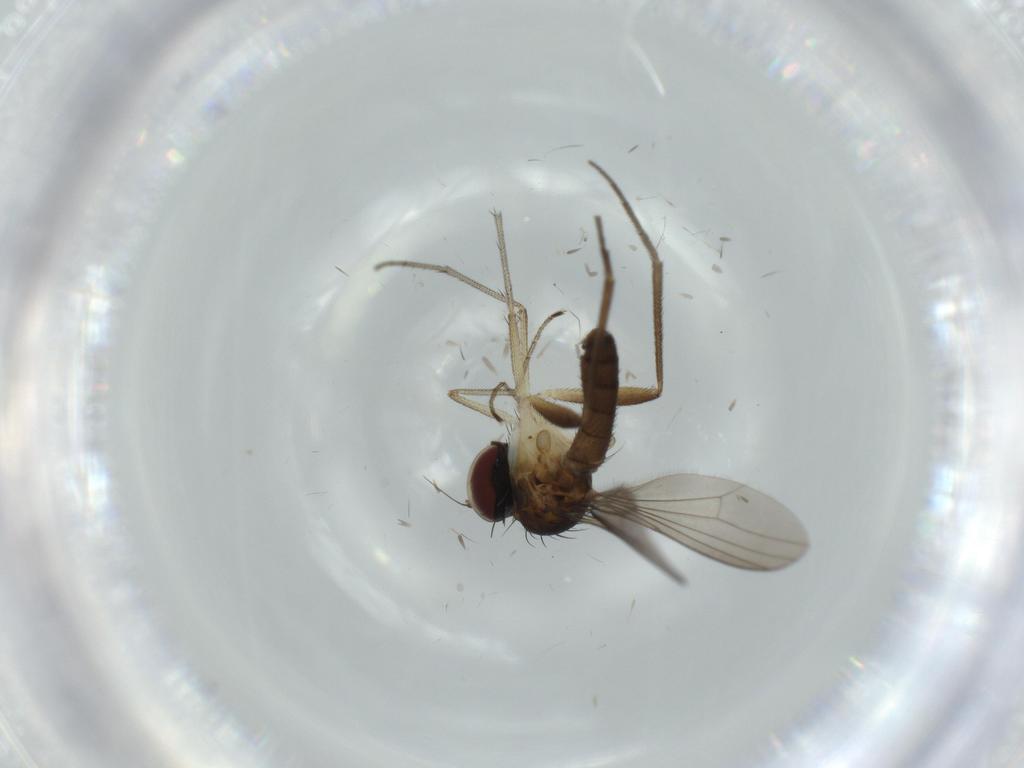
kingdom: Animalia
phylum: Arthropoda
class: Insecta
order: Diptera
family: Dolichopodidae
